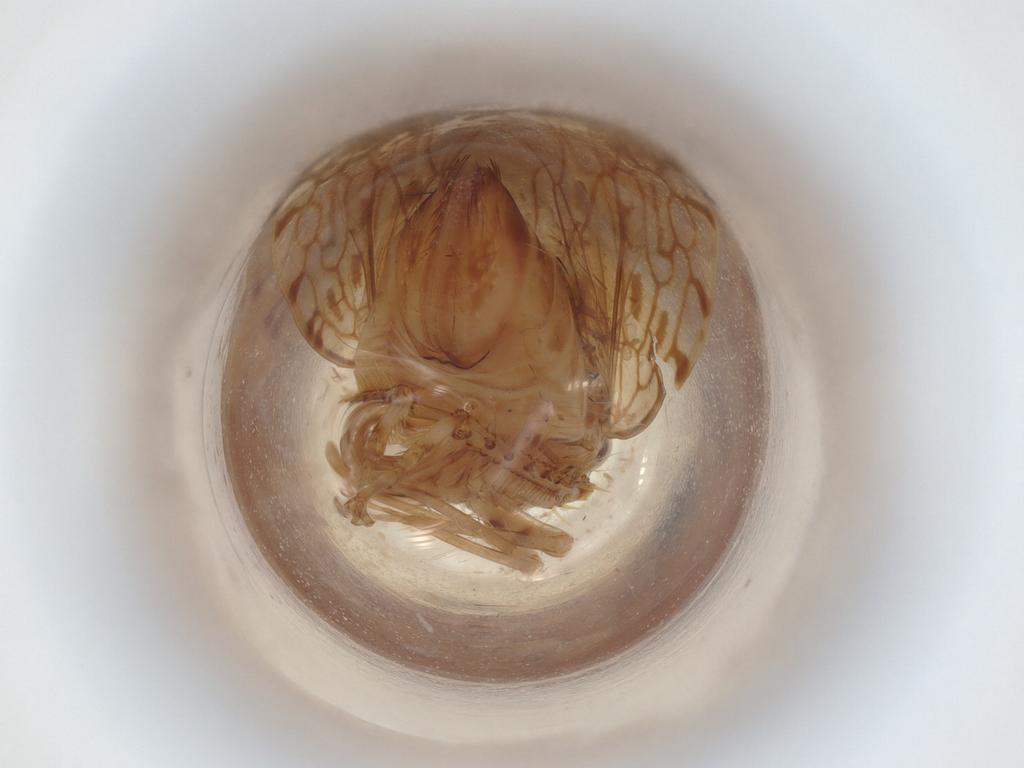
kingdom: Animalia
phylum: Arthropoda
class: Insecta
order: Hemiptera
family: Cicadellidae
